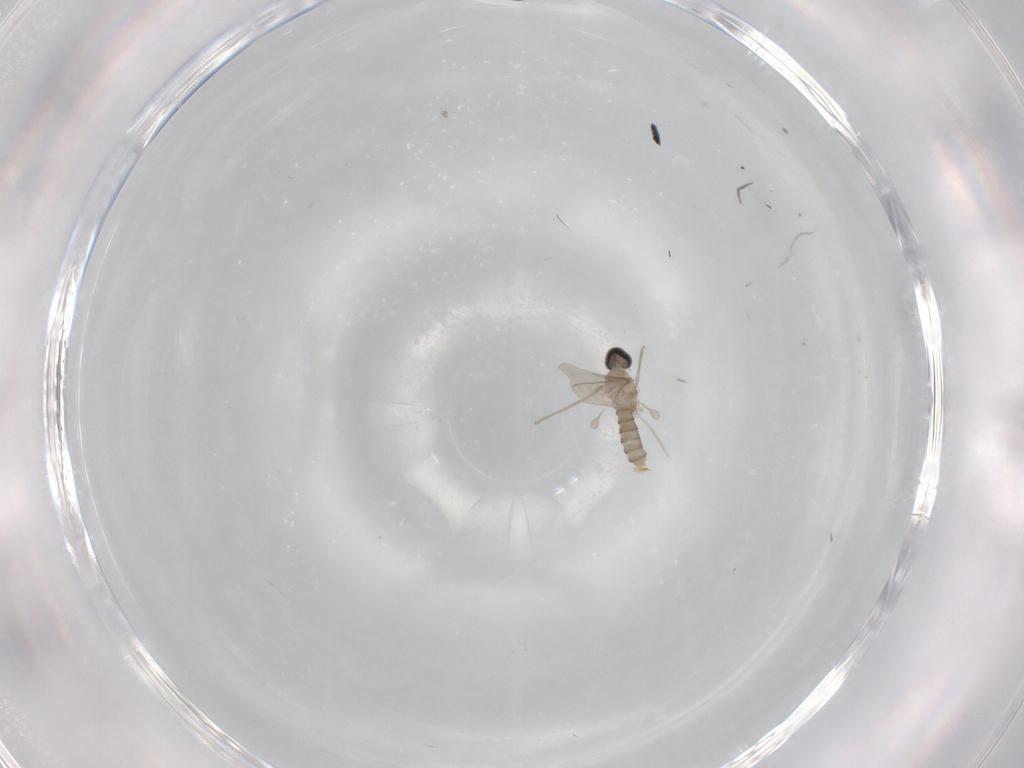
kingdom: Animalia
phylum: Arthropoda
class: Insecta
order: Diptera
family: Cecidomyiidae
